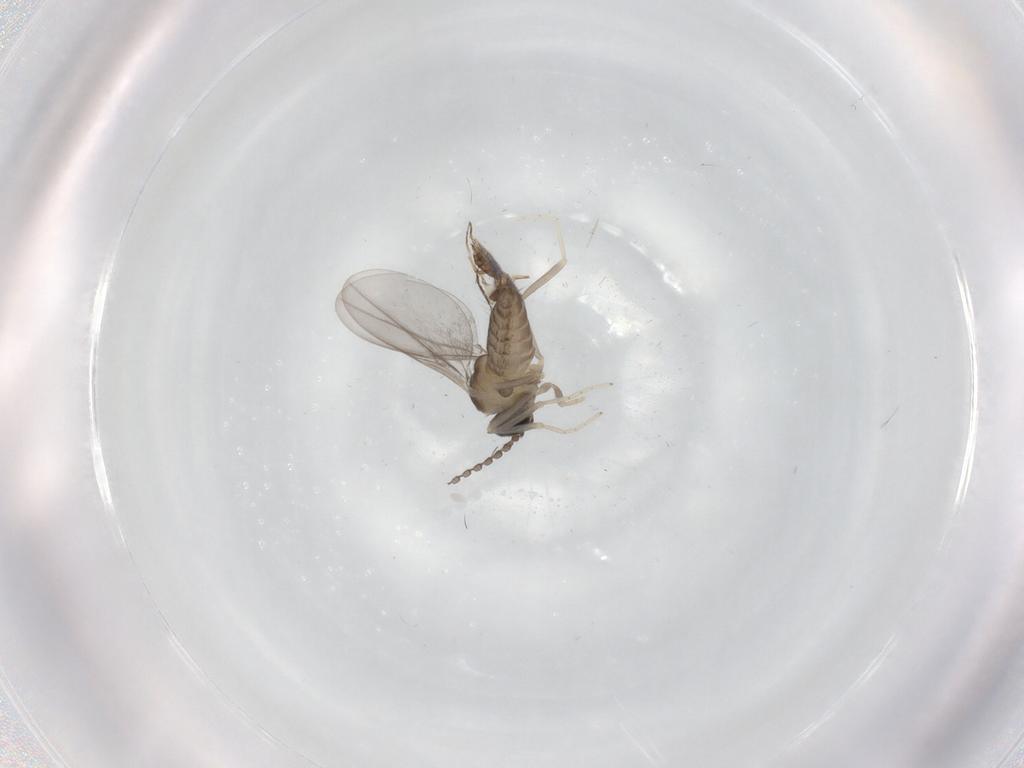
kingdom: Animalia
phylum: Arthropoda
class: Insecta
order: Diptera
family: Cecidomyiidae
